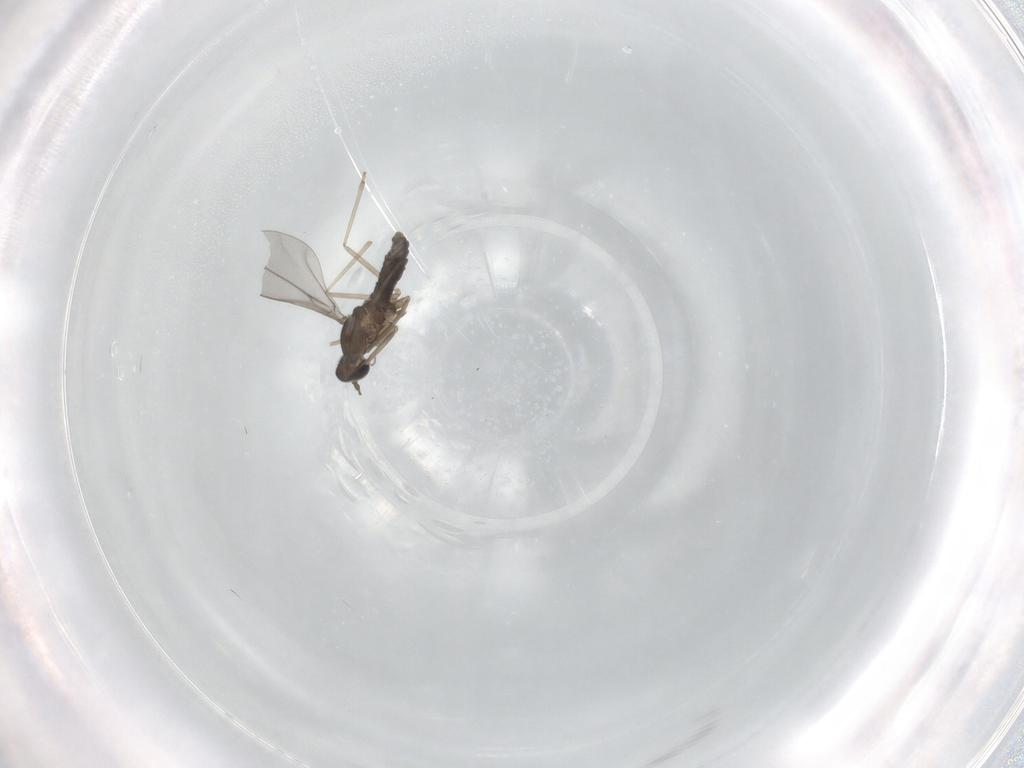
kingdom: Animalia
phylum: Arthropoda
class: Insecta
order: Diptera
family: Cecidomyiidae
